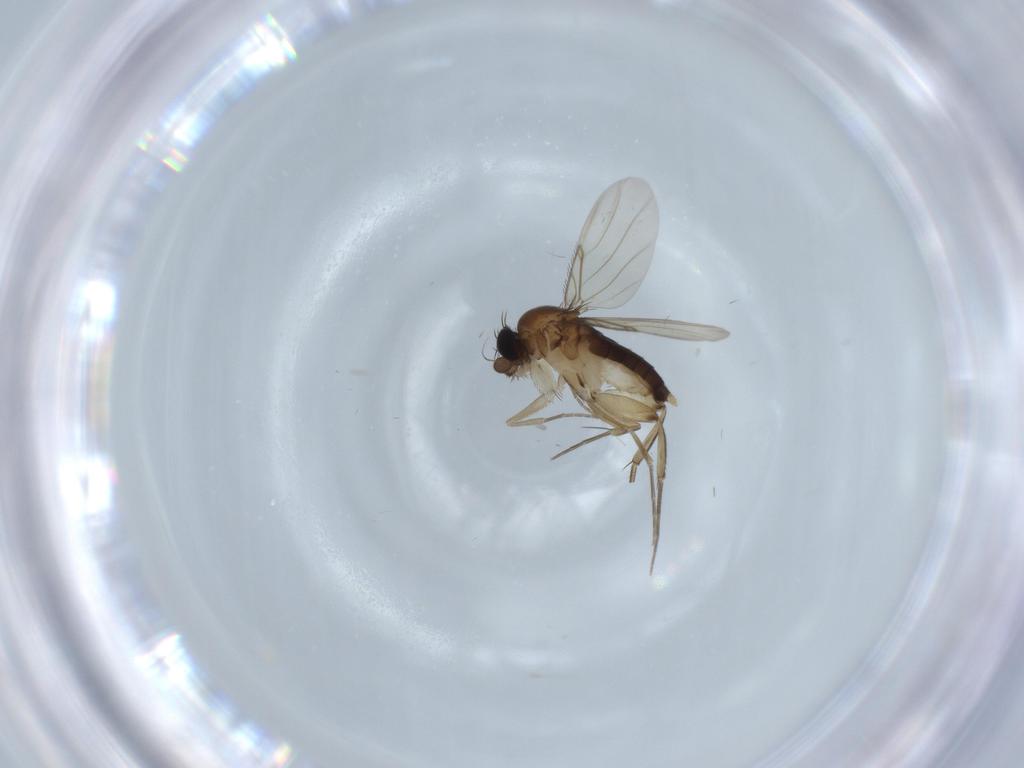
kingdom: Animalia
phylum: Arthropoda
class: Insecta
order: Diptera
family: Phoridae
